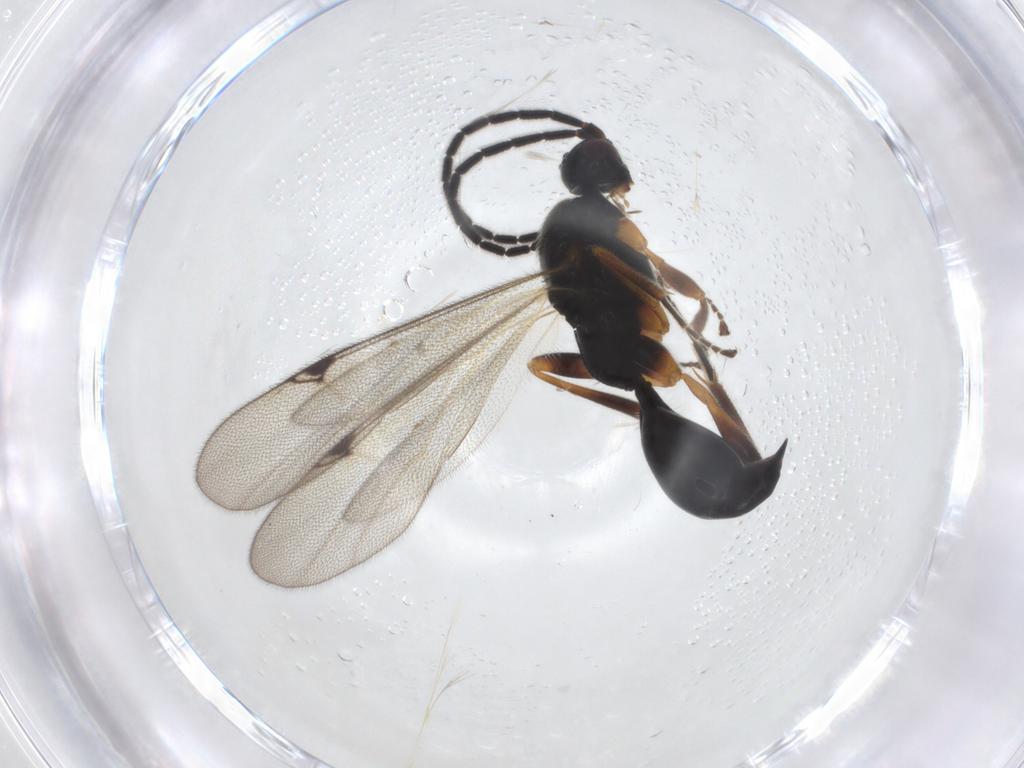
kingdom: Animalia
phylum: Arthropoda
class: Insecta
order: Hymenoptera
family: Proctotrupidae
